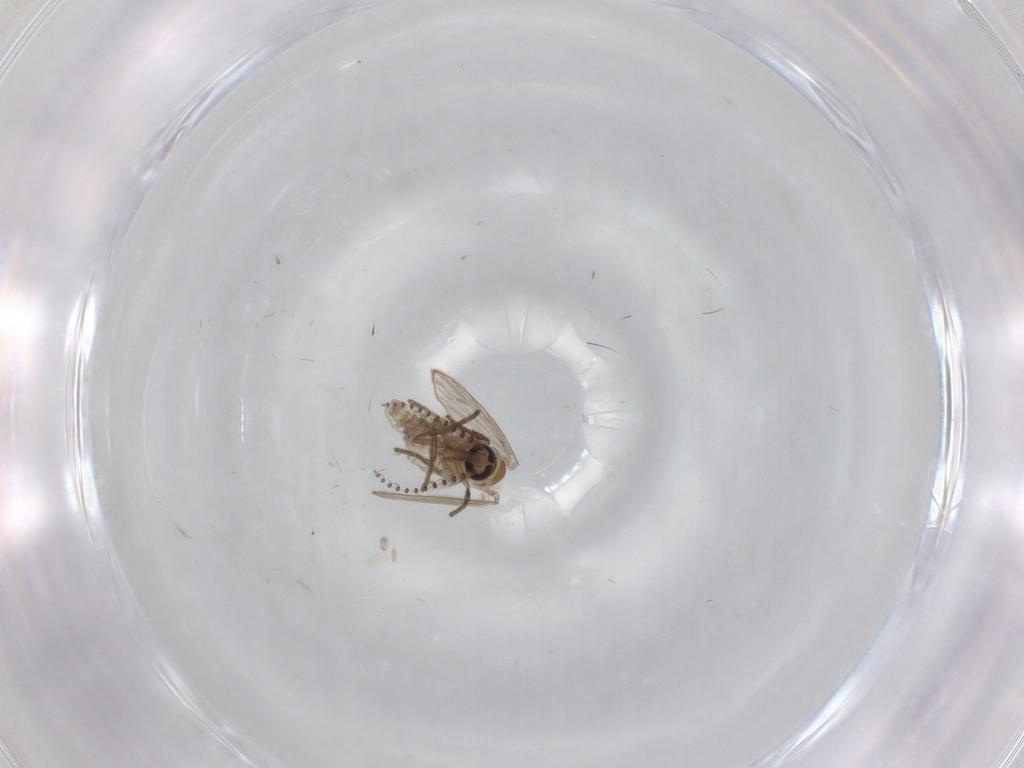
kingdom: Animalia
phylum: Arthropoda
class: Insecta
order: Diptera
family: Psychodidae
